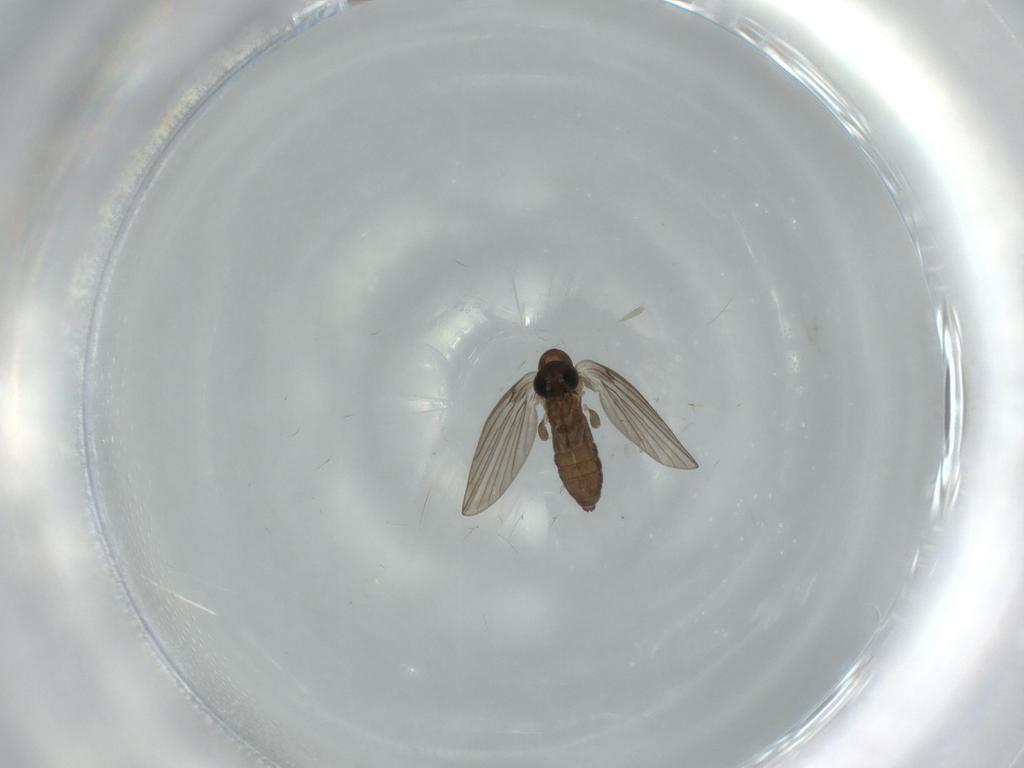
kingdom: Animalia
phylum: Arthropoda
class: Insecta
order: Diptera
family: Psychodidae
